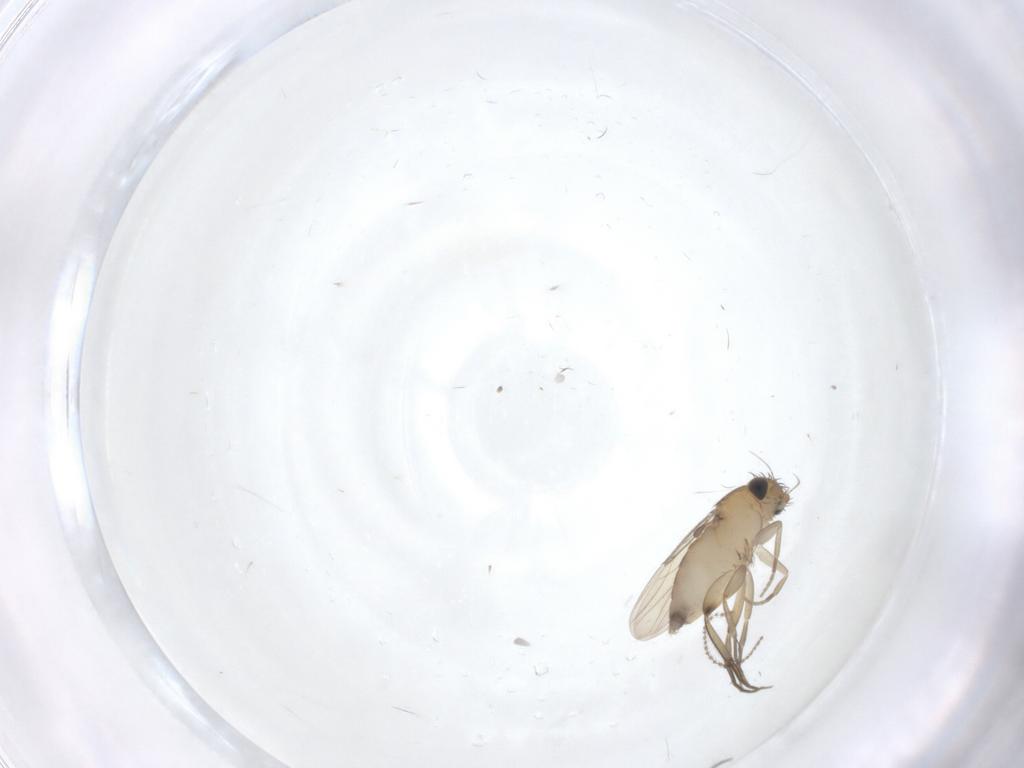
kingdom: Animalia
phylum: Arthropoda
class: Insecta
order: Diptera
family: Phoridae
